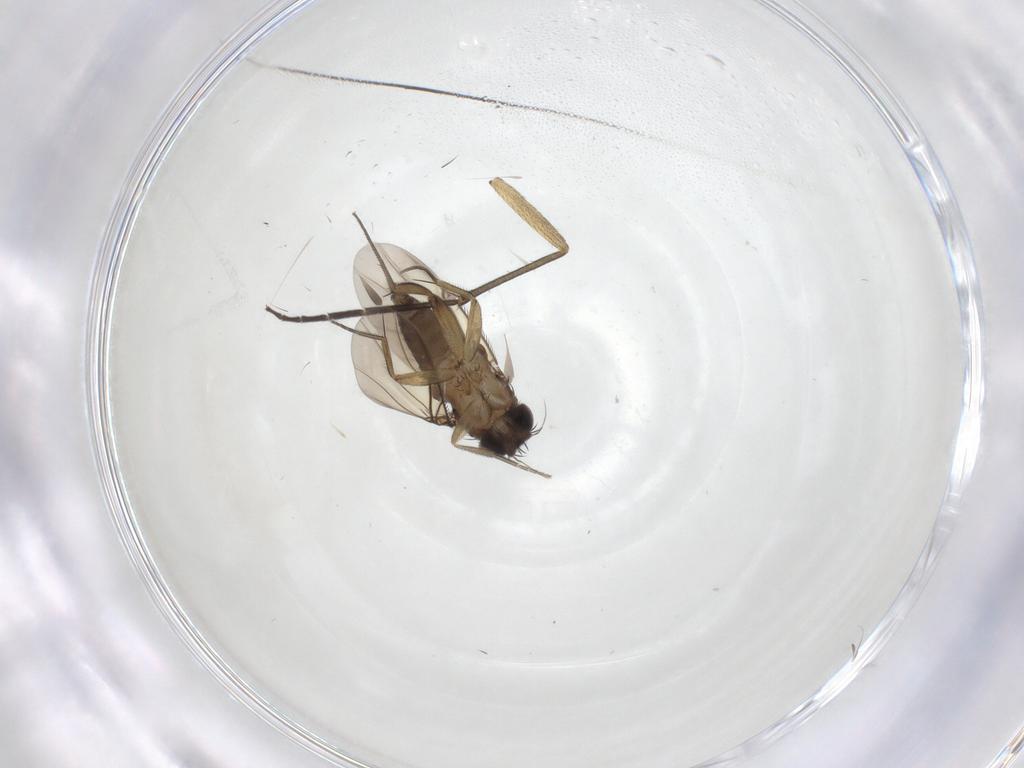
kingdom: Animalia
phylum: Arthropoda
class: Insecta
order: Diptera
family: Phoridae
